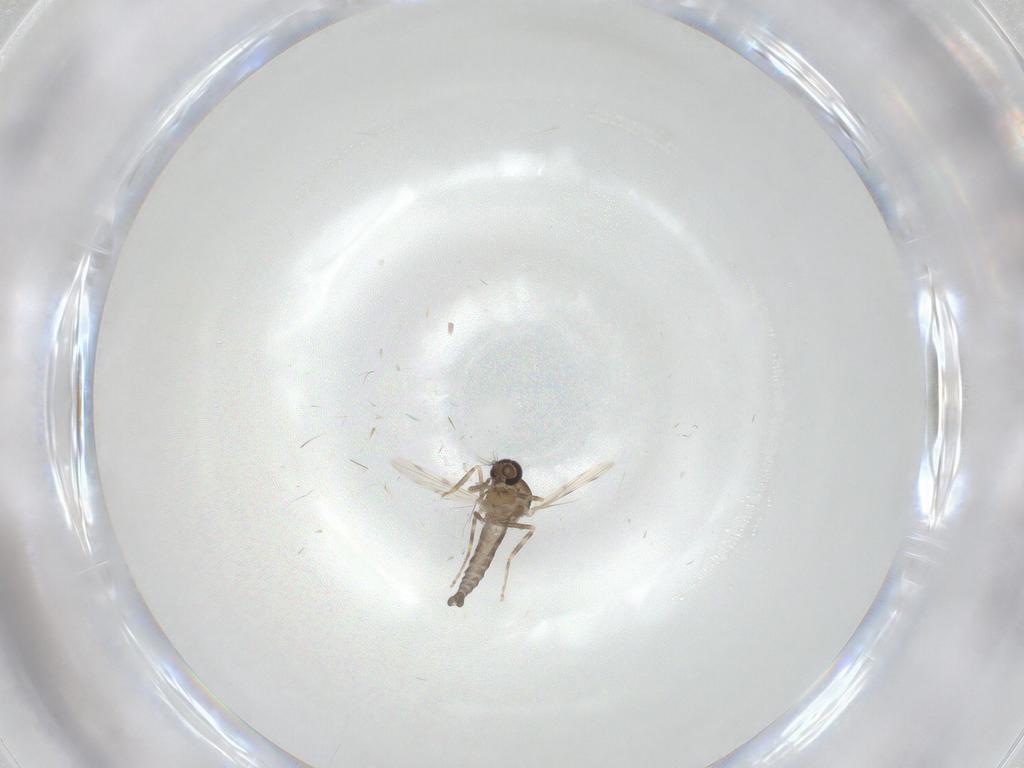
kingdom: Animalia
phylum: Arthropoda
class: Insecta
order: Diptera
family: Ceratopogonidae
